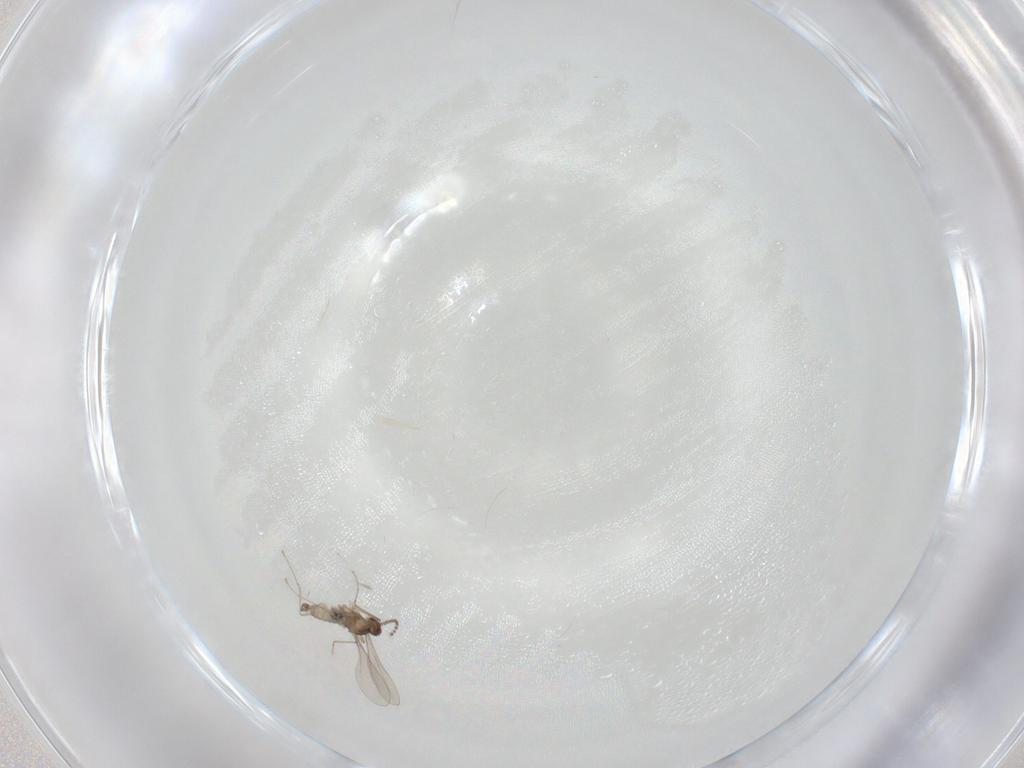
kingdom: Animalia
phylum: Arthropoda
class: Insecta
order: Diptera
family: Cecidomyiidae
